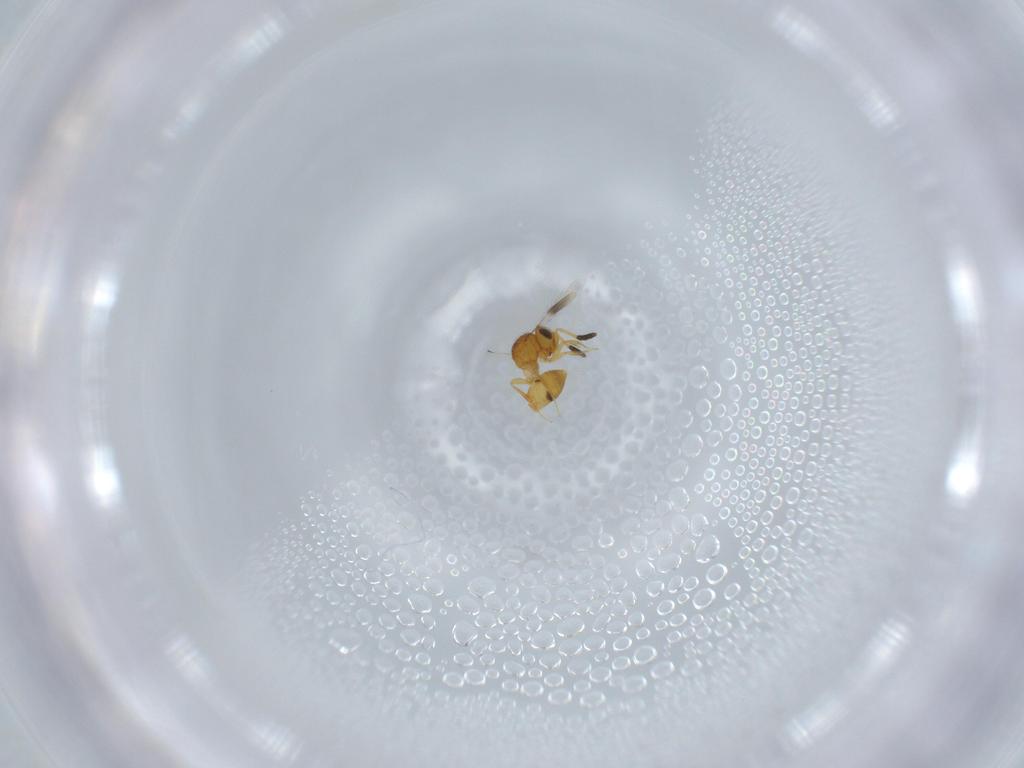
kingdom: Animalia
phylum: Arthropoda
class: Insecta
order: Hymenoptera
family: Scelionidae
